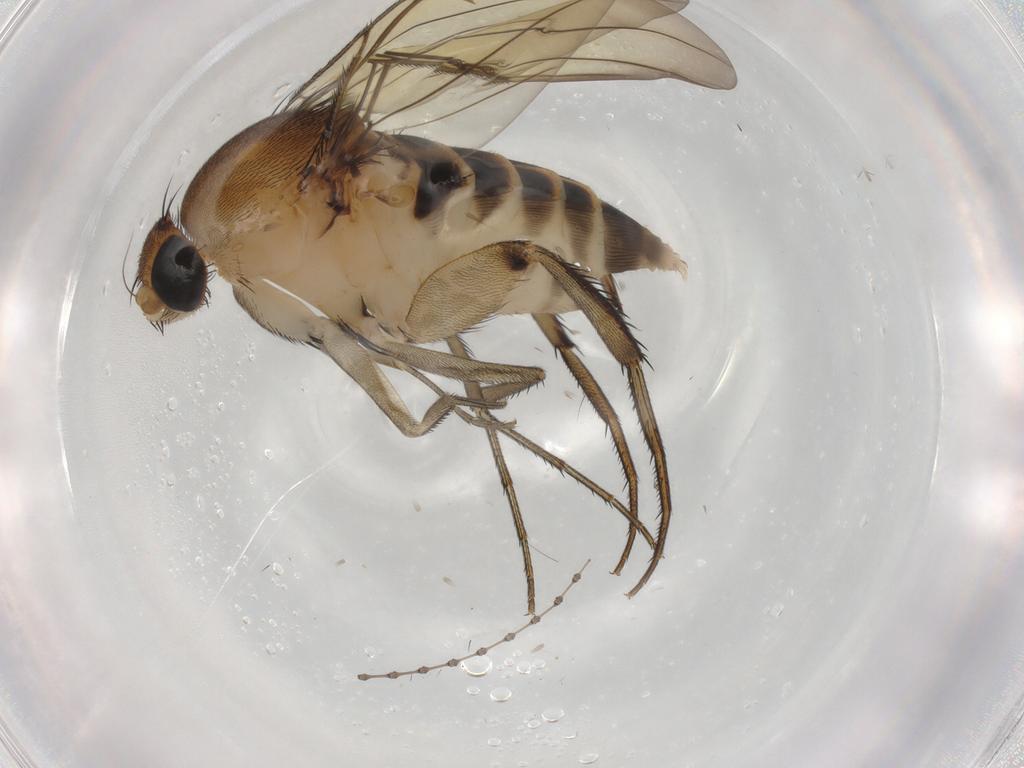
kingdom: Animalia
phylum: Arthropoda
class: Insecta
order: Diptera
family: Phoridae
